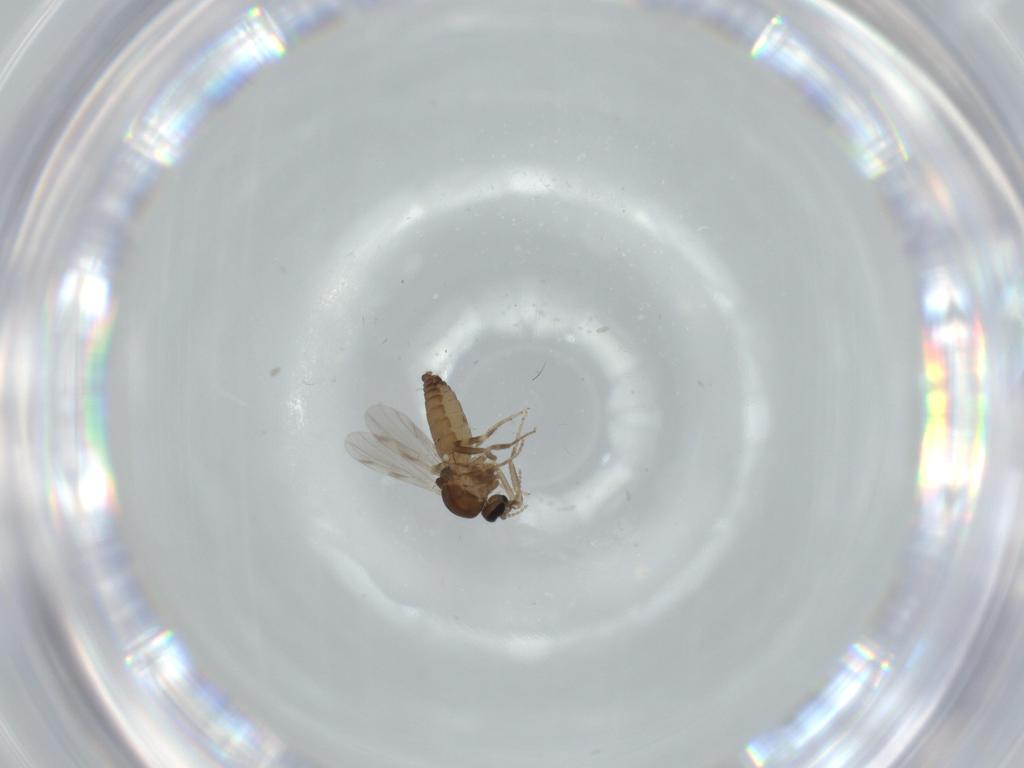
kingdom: Animalia
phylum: Arthropoda
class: Insecta
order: Diptera
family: Ceratopogonidae
